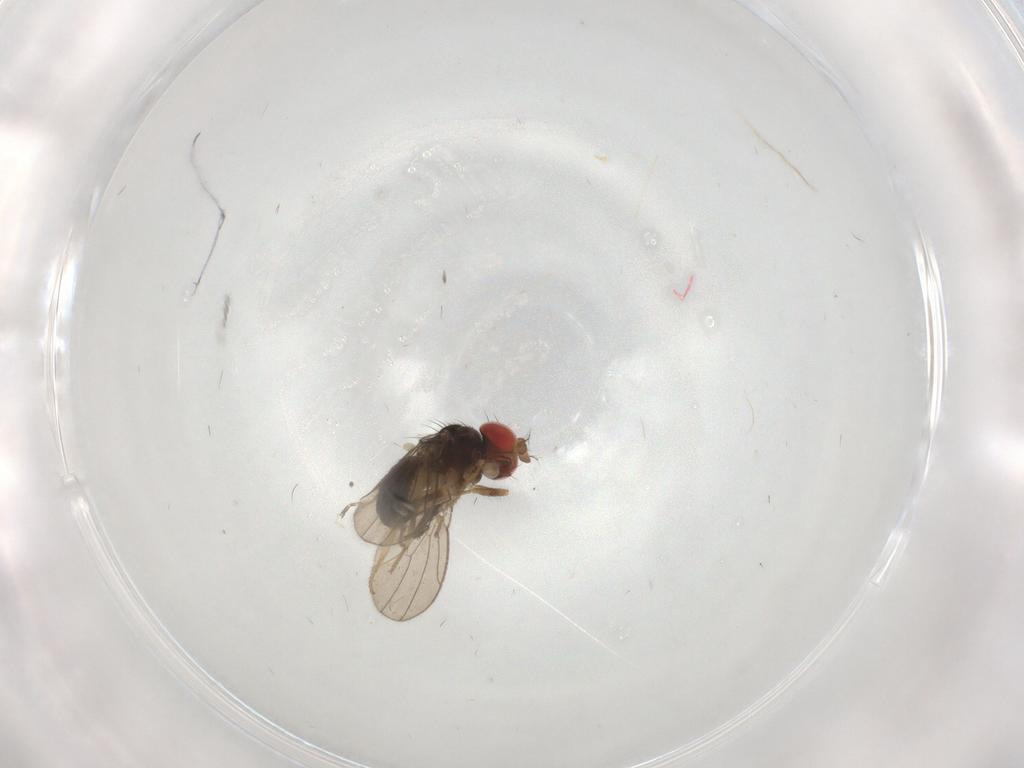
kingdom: Animalia
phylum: Arthropoda
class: Insecta
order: Diptera
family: Drosophilidae
